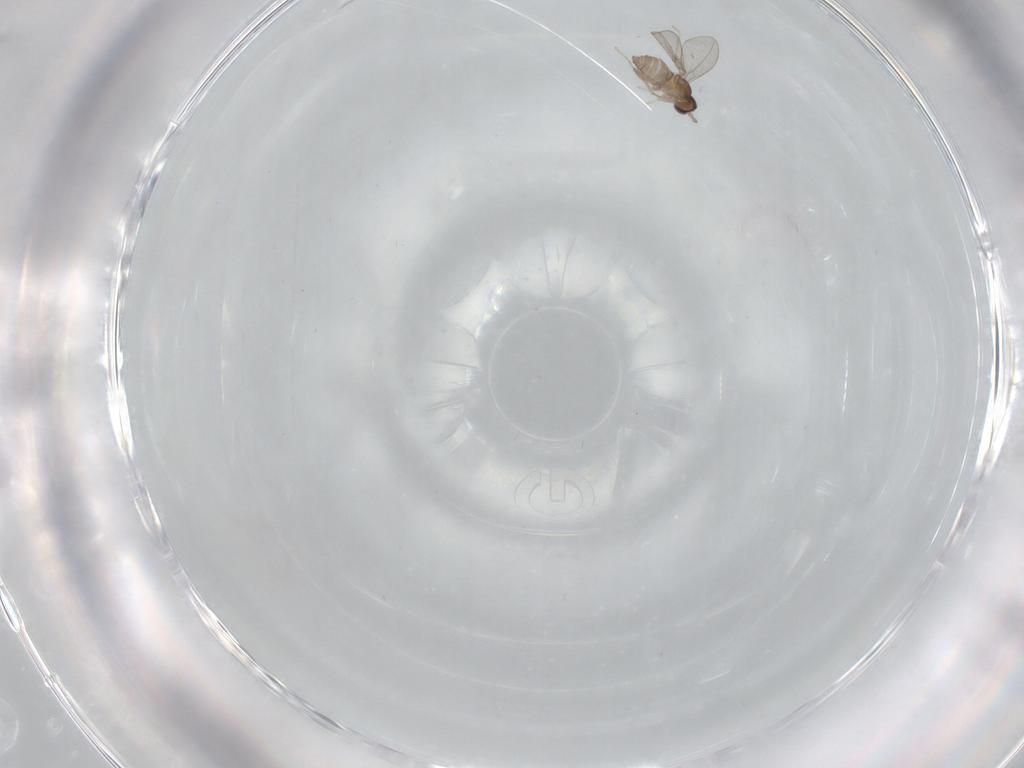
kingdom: Animalia
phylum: Arthropoda
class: Insecta
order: Diptera
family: Cecidomyiidae
